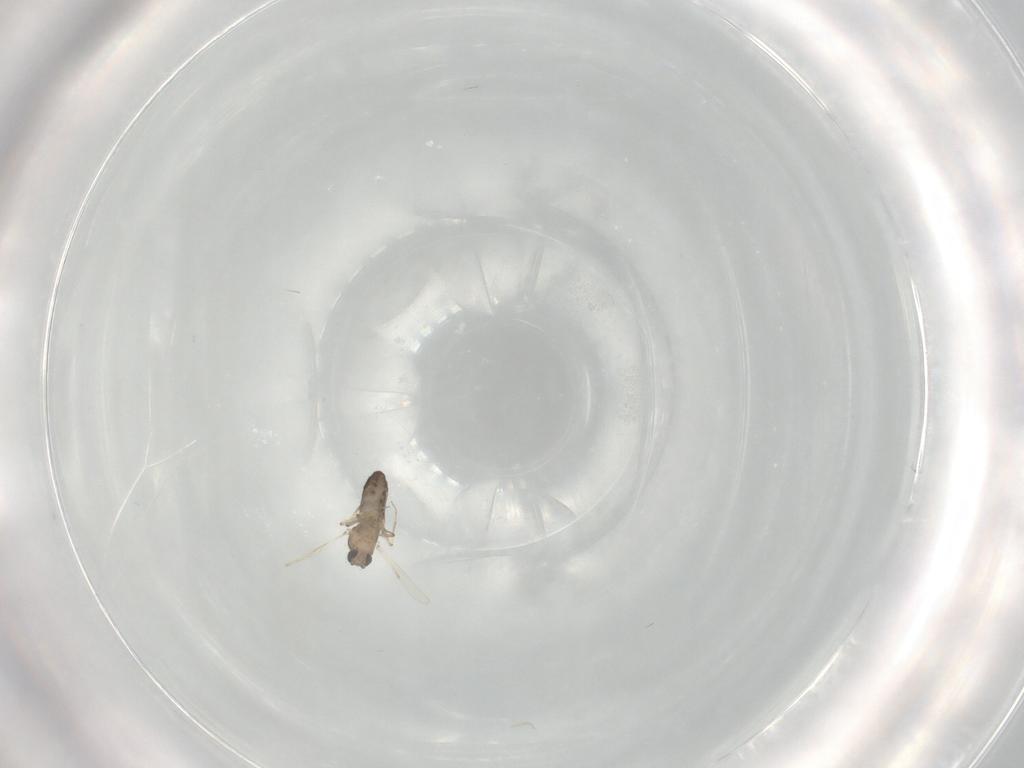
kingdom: Animalia
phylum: Arthropoda
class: Insecta
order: Diptera
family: Ceratopogonidae
